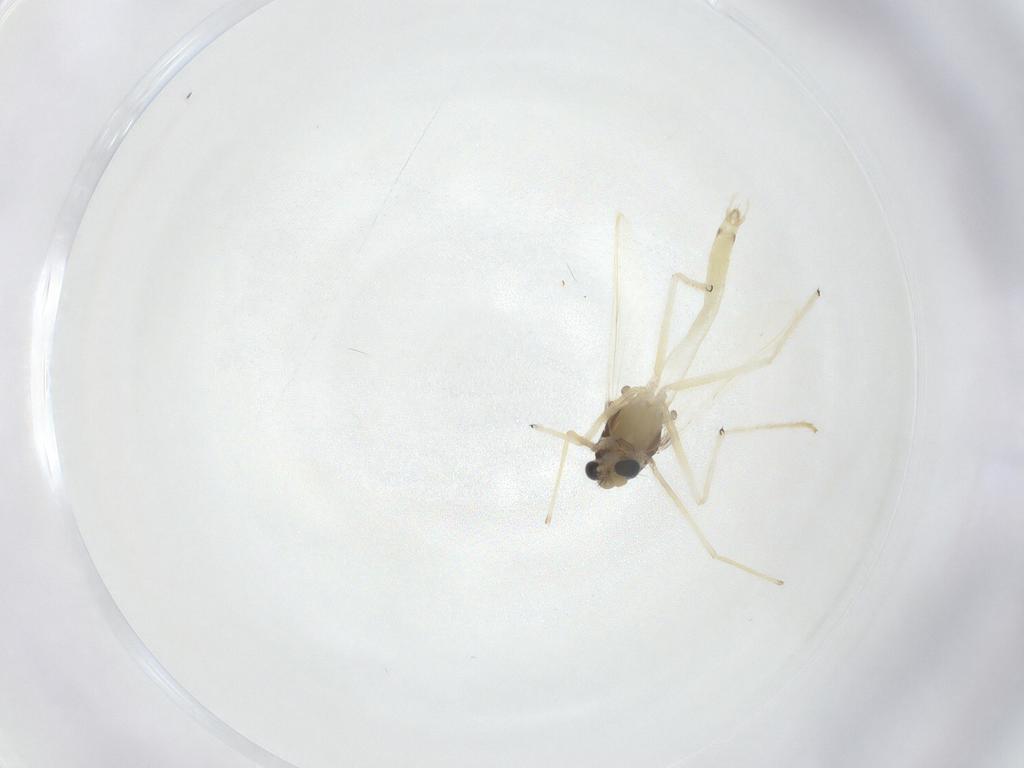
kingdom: Animalia
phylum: Arthropoda
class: Insecta
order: Diptera
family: Chironomidae
